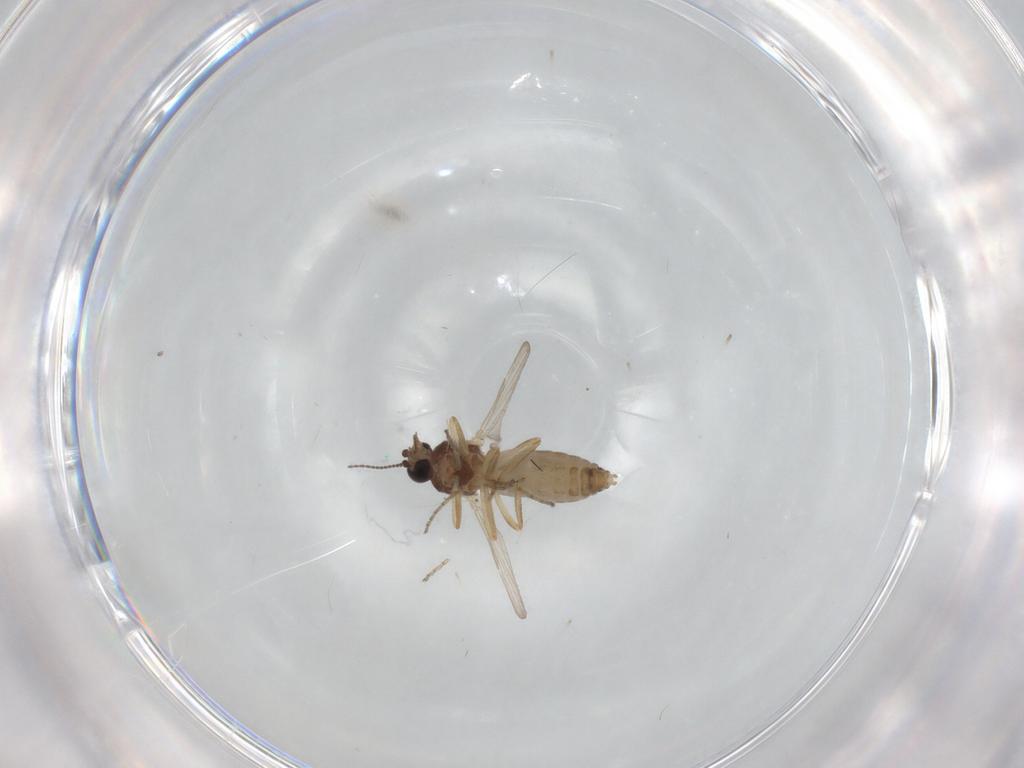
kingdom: Animalia
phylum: Arthropoda
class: Insecta
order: Diptera
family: Ceratopogonidae
